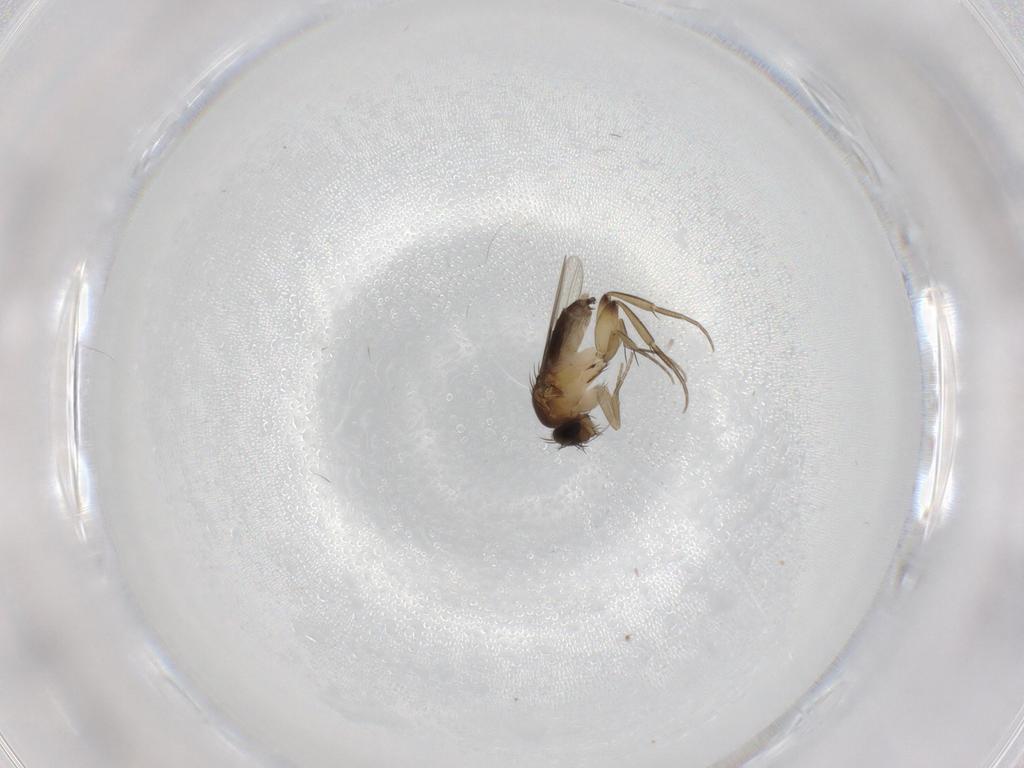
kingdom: Animalia
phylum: Arthropoda
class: Insecta
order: Diptera
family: Phoridae
